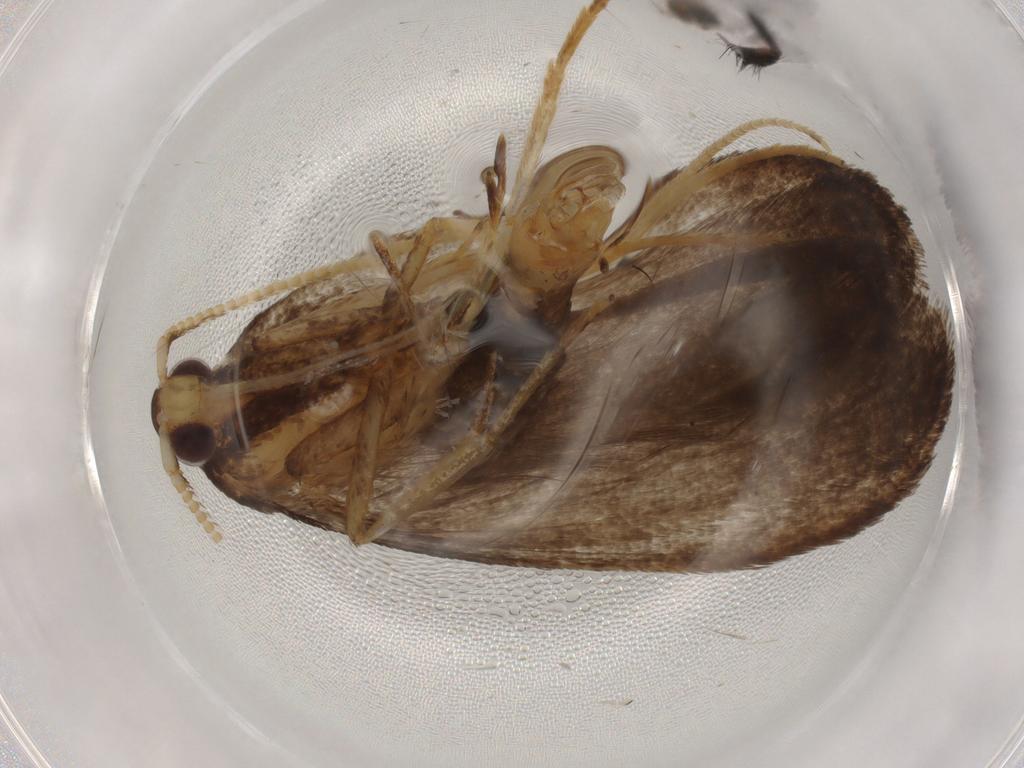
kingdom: Animalia
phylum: Arthropoda
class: Insecta
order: Lepidoptera
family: Lecithoceridae
